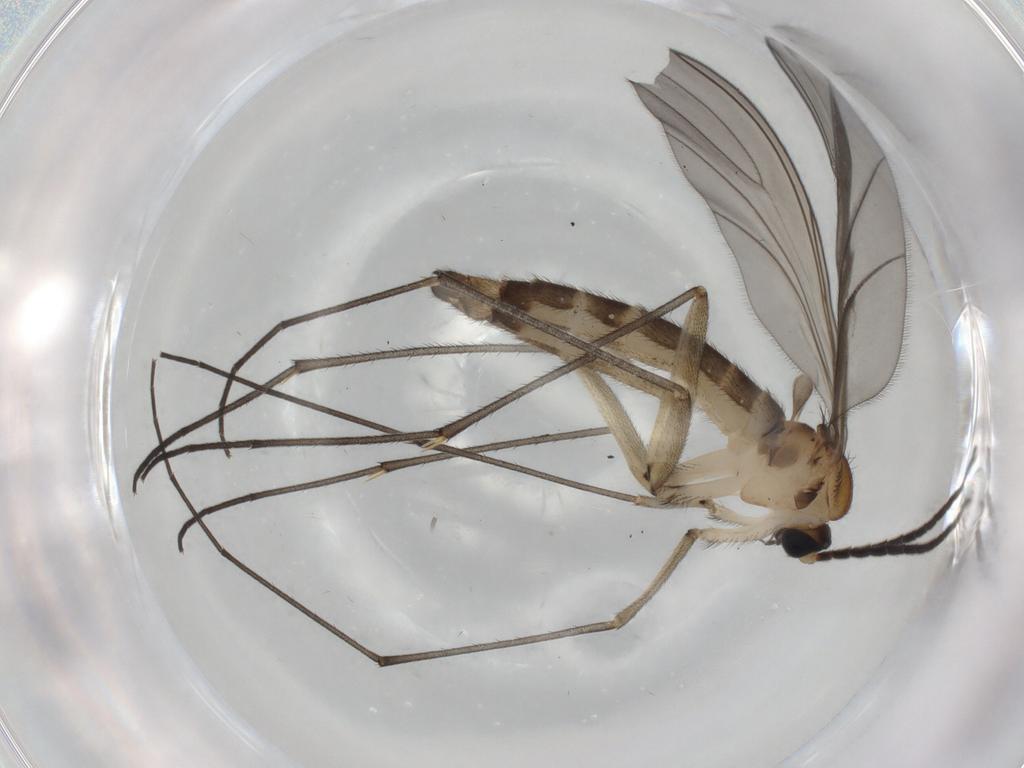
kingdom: Animalia
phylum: Arthropoda
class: Insecta
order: Diptera
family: Sciaridae
